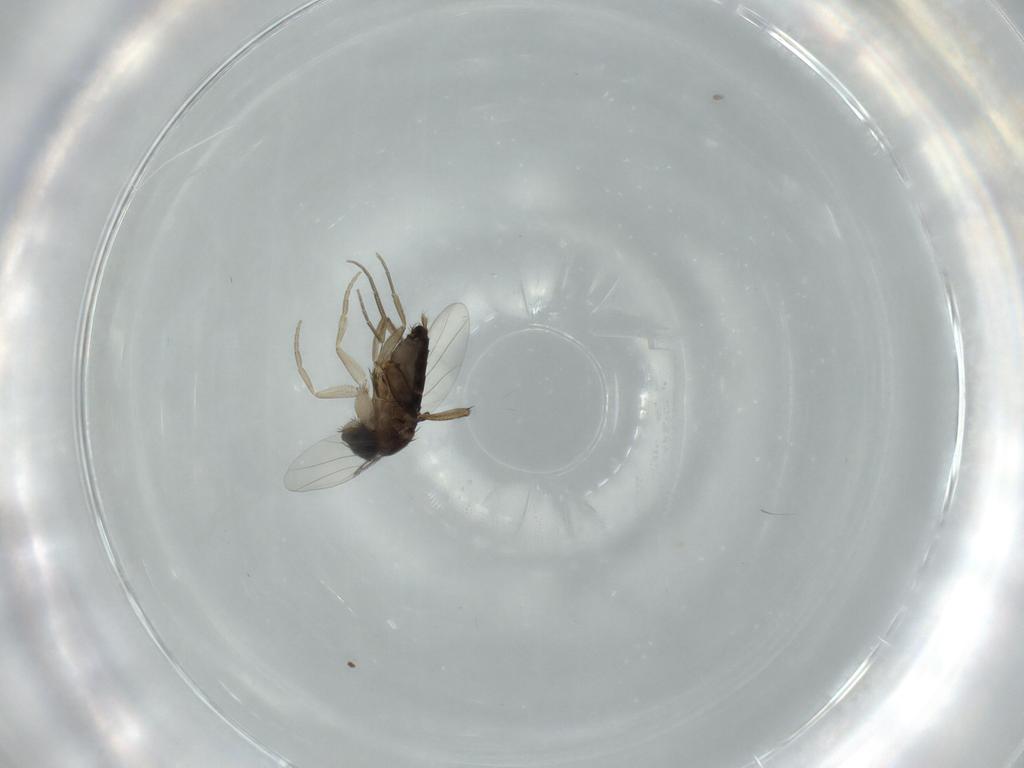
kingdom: Animalia
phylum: Arthropoda
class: Insecta
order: Diptera
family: Phoridae
